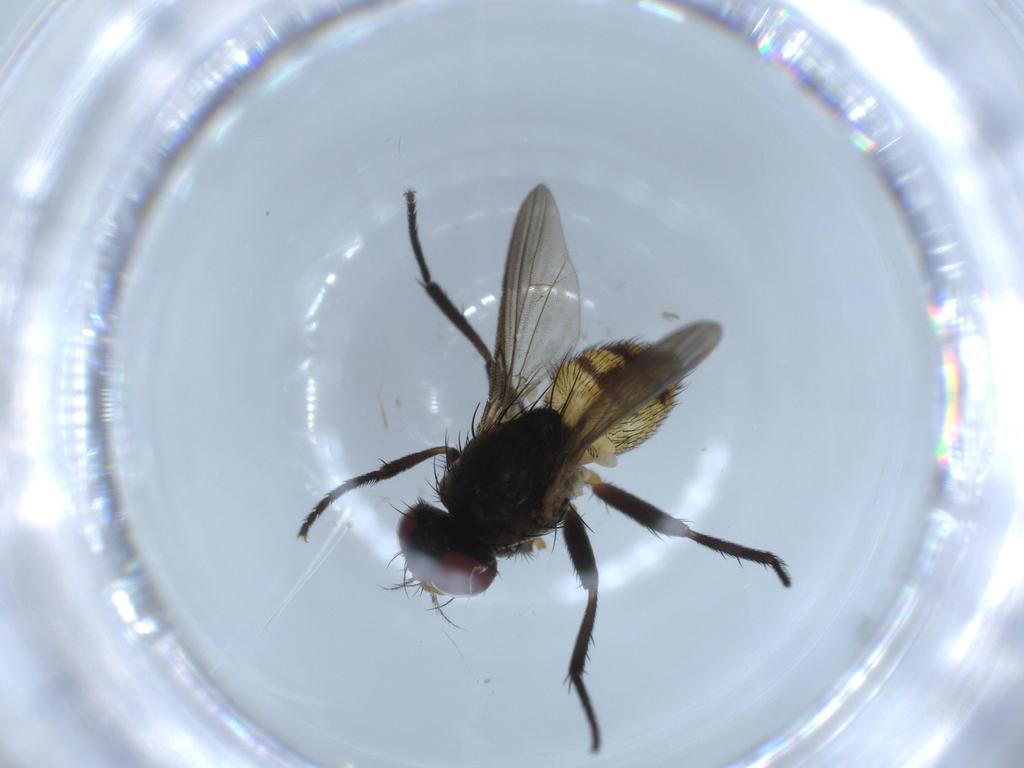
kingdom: Animalia
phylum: Arthropoda
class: Insecta
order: Diptera
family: Anthomyiidae
